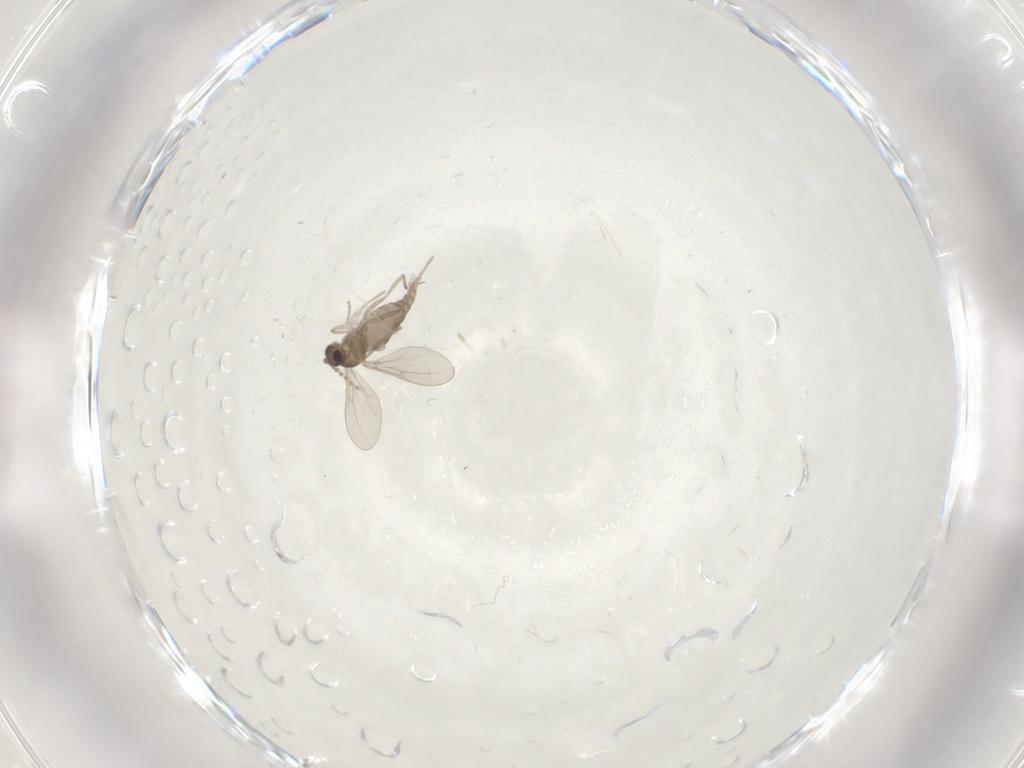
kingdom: Animalia
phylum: Arthropoda
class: Insecta
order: Diptera
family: Cecidomyiidae
